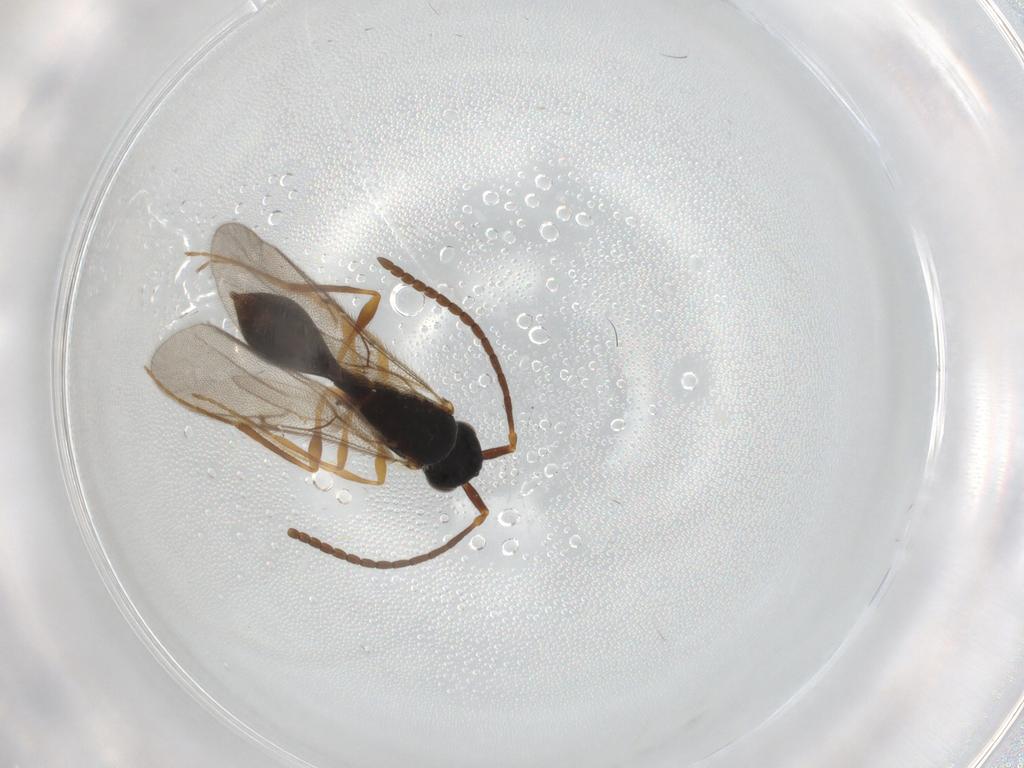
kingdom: Animalia
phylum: Arthropoda
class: Insecta
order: Hymenoptera
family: Diapriidae
